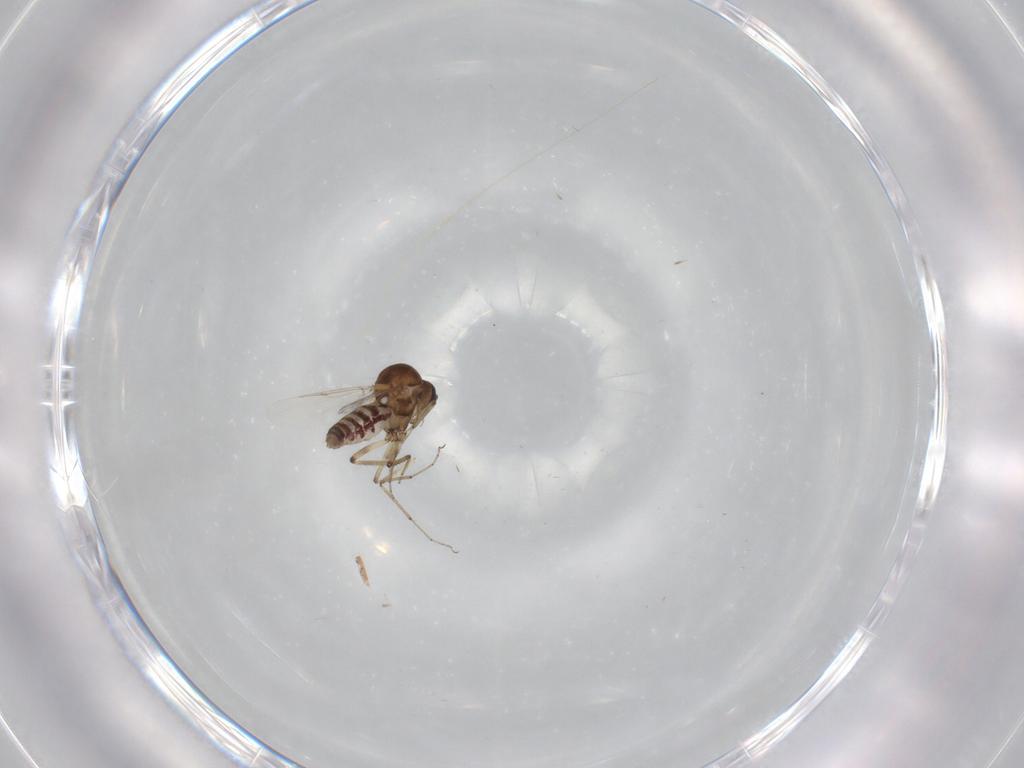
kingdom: Animalia
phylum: Arthropoda
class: Insecta
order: Diptera
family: Ceratopogonidae
